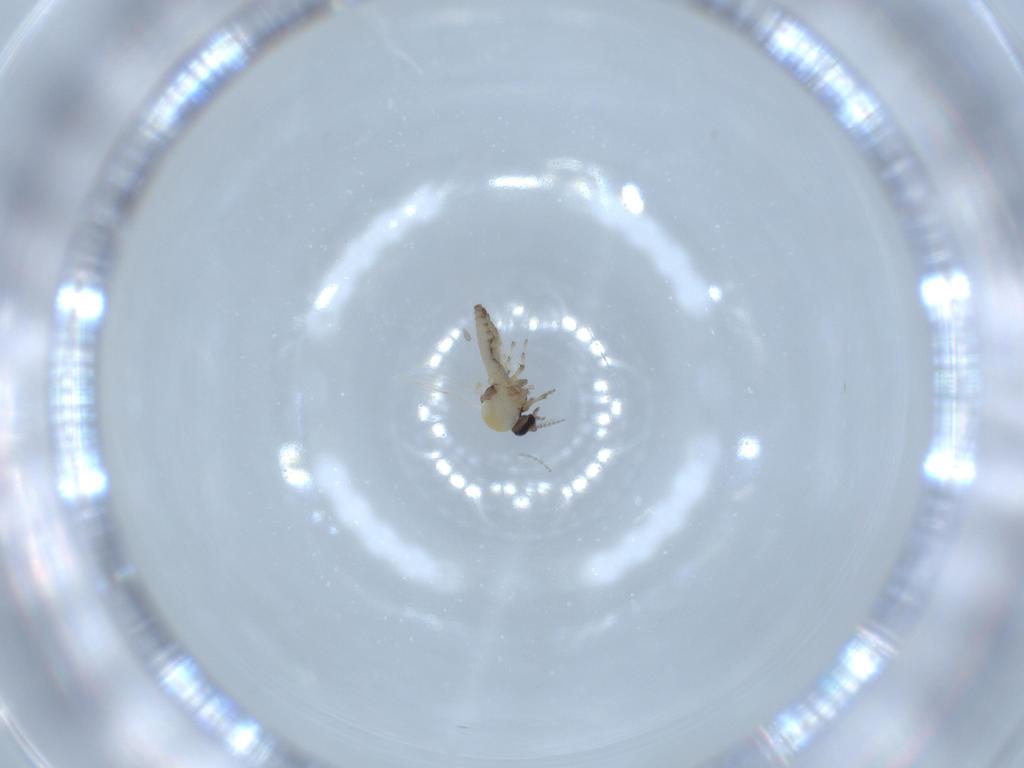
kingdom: Animalia
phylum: Arthropoda
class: Insecta
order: Diptera
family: Ceratopogonidae
